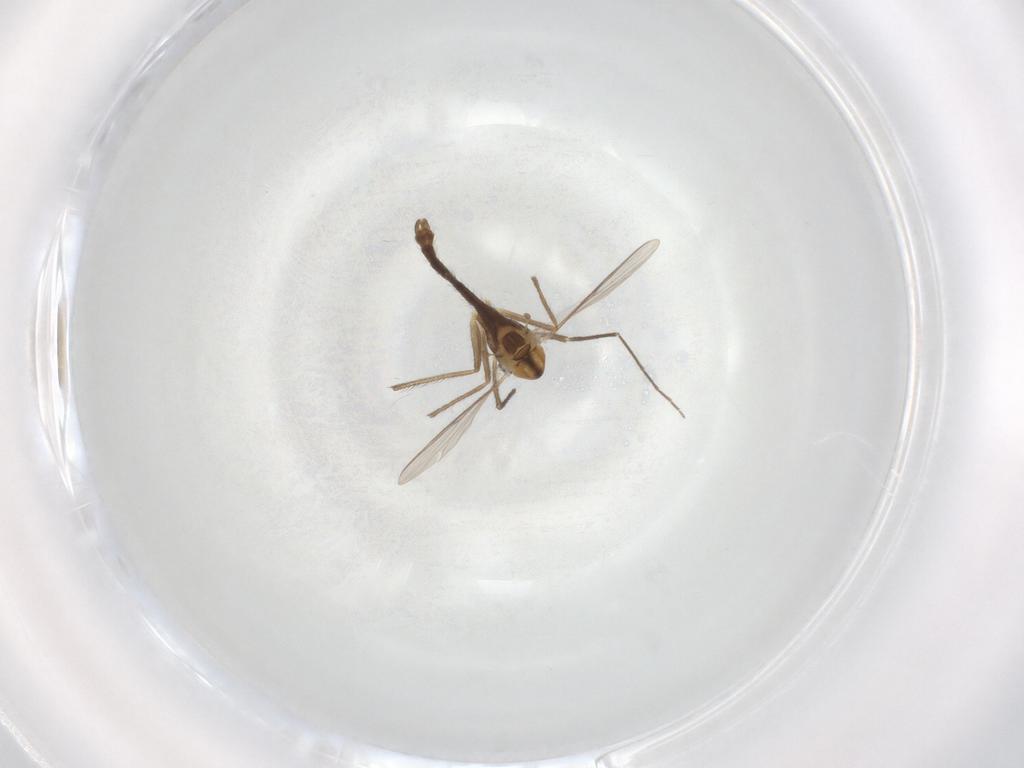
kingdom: Animalia
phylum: Arthropoda
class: Insecta
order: Diptera
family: Chironomidae
